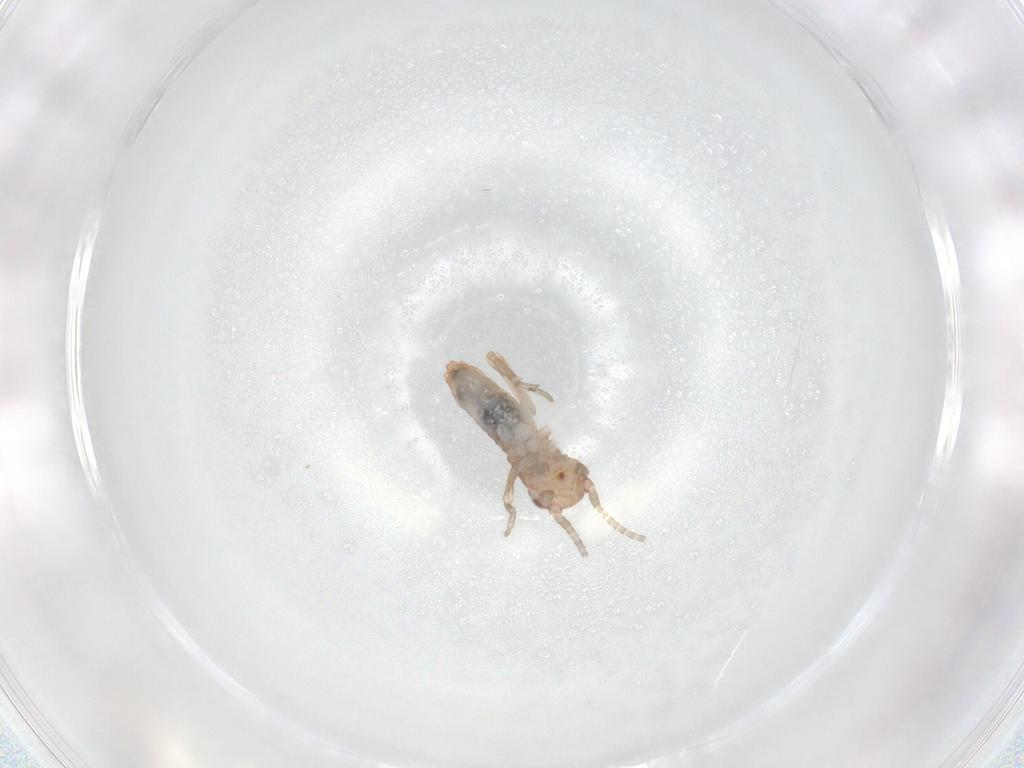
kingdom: Animalia
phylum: Arthropoda
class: Insecta
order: Orthoptera
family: Gryllidae
